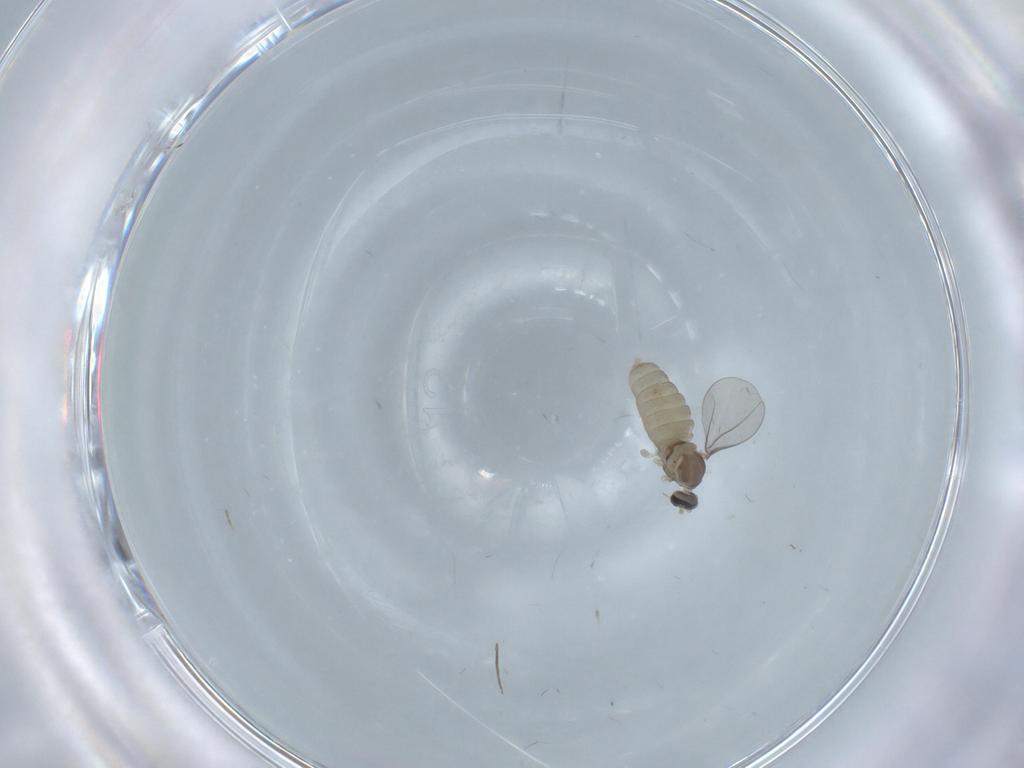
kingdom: Animalia
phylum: Arthropoda
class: Insecta
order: Diptera
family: Cecidomyiidae
